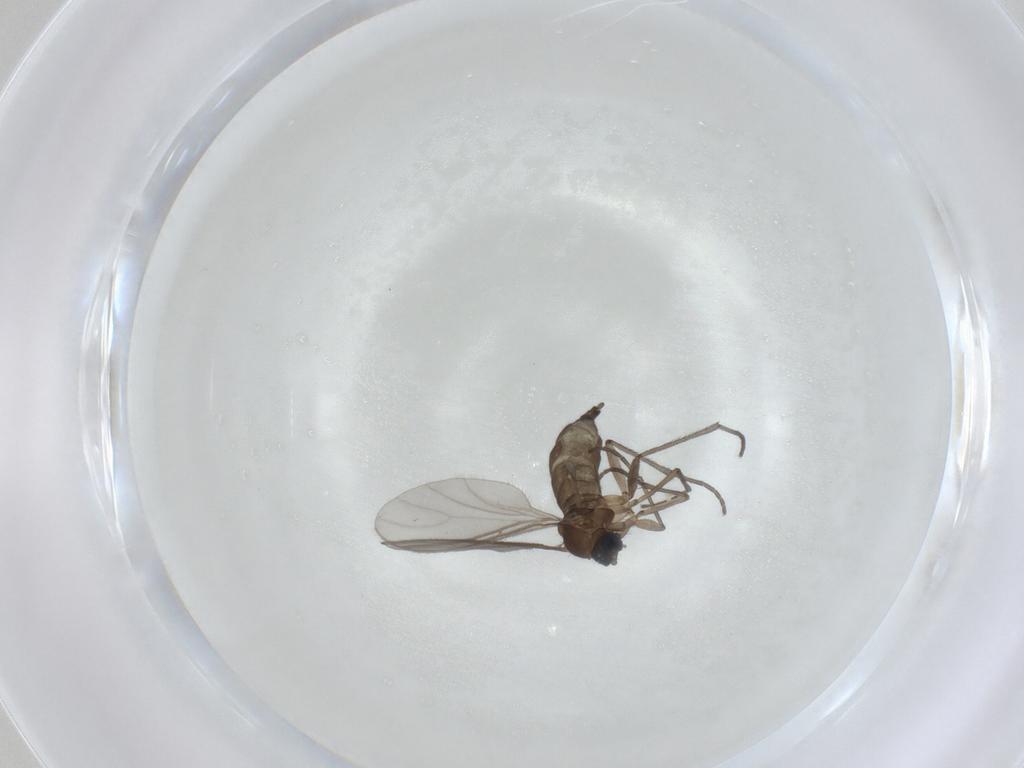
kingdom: Animalia
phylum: Arthropoda
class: Insecta
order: Diptera
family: Sciaridae
